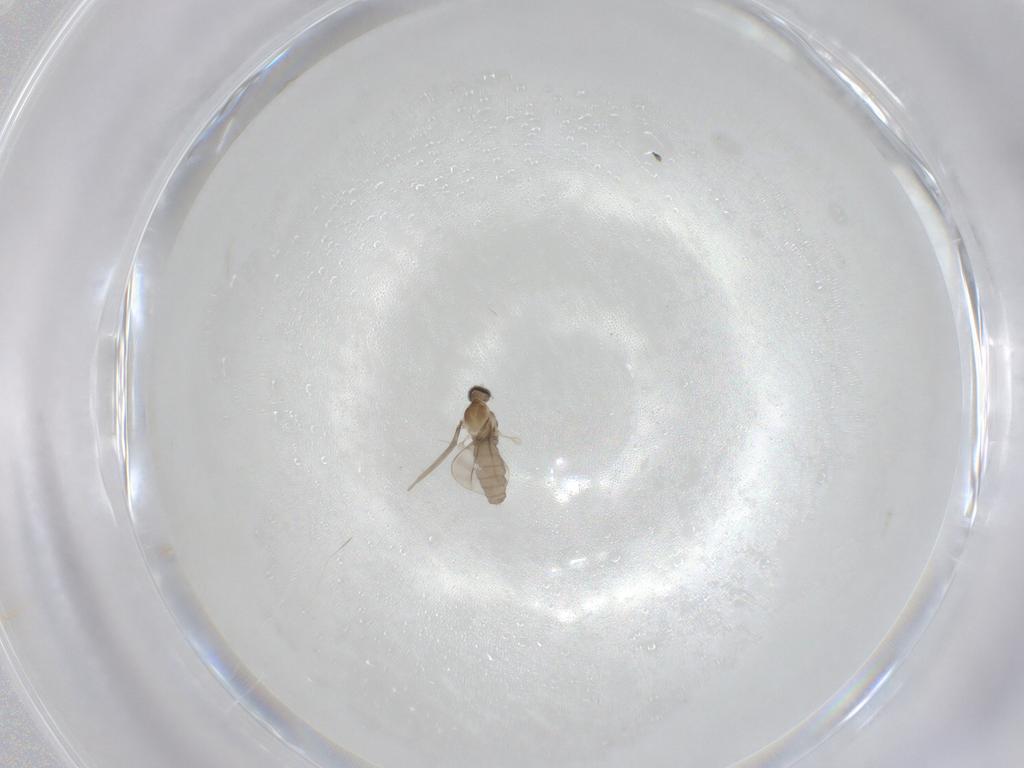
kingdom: Animalia
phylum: Arthropoda
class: Insecta
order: Diptera
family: Cecidomyiidae
